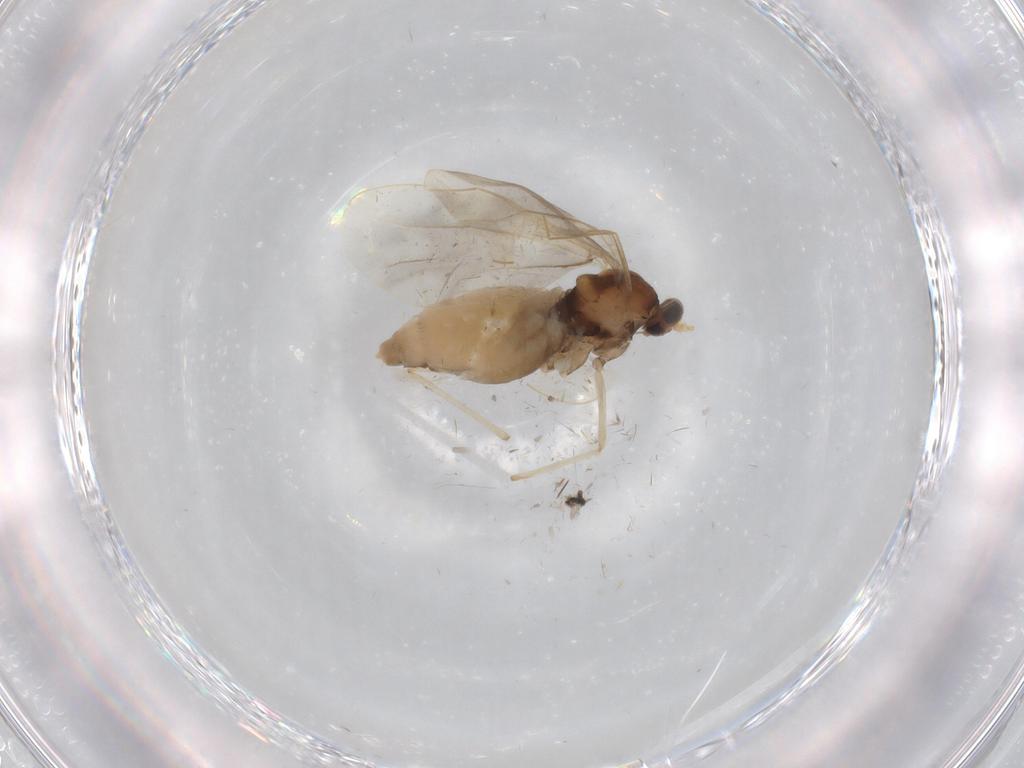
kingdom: Animalia
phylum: Arthropoda
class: Insecta
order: Diptera
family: Cecidomyiidae
